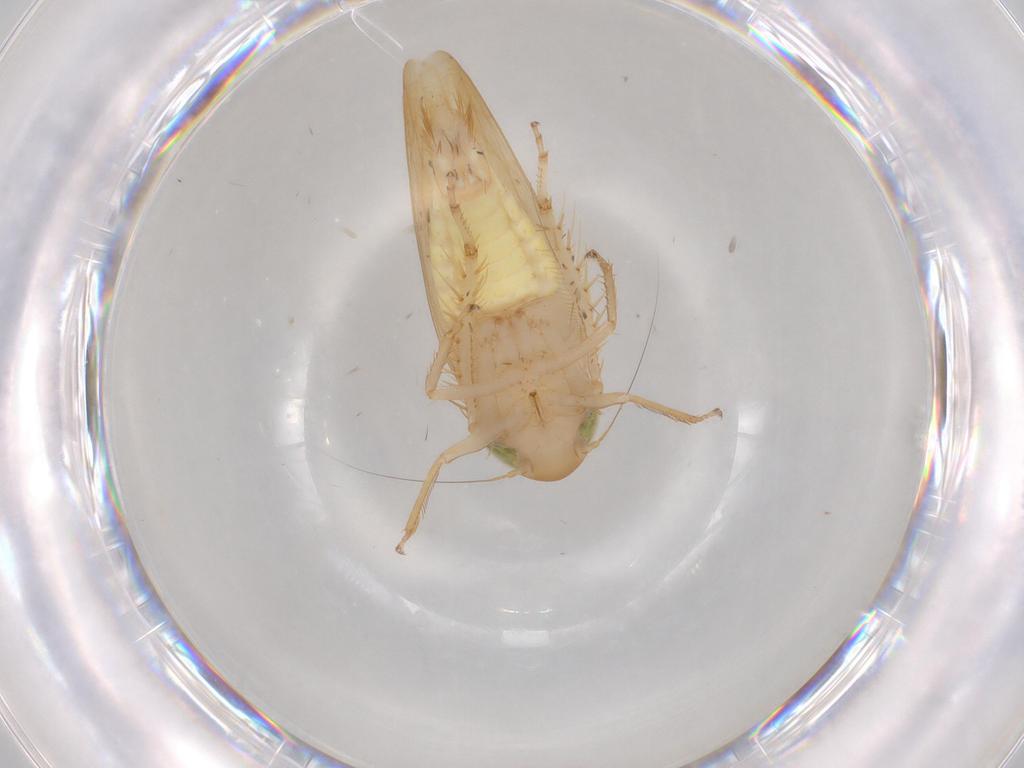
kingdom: Animalia
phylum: Arthropoda
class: Insecta
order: Hemiptera
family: Cicadellidae
